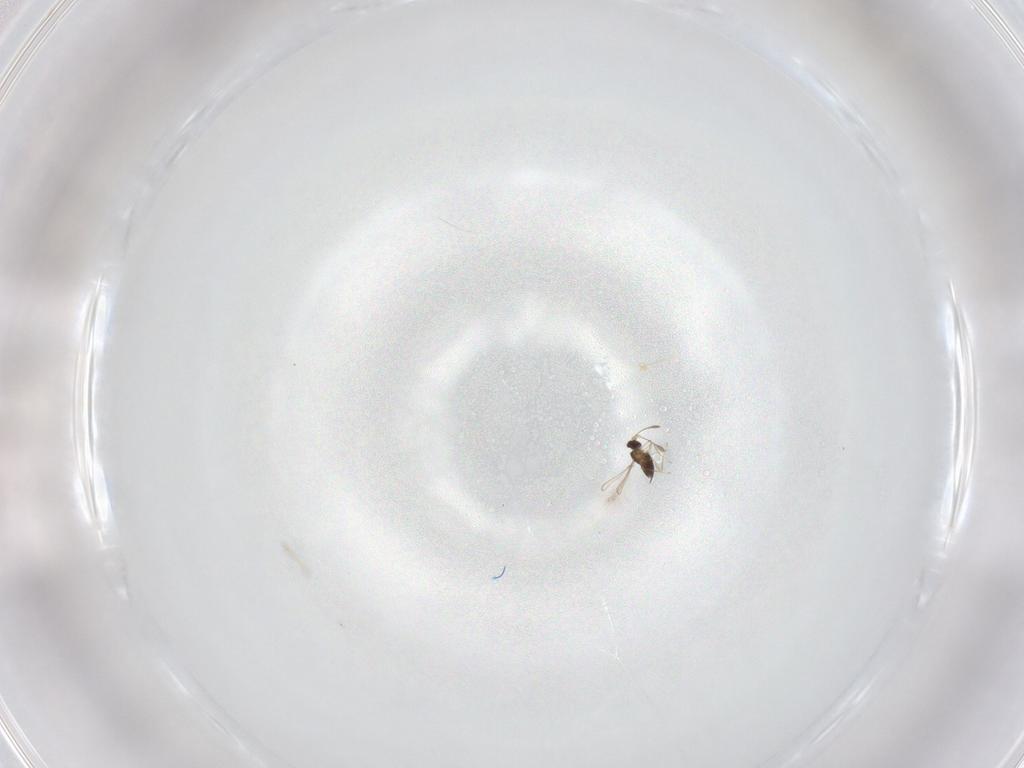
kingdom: Animalia
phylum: Arthropoda
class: Insecta
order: Hymenoptera
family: Mymaridae
